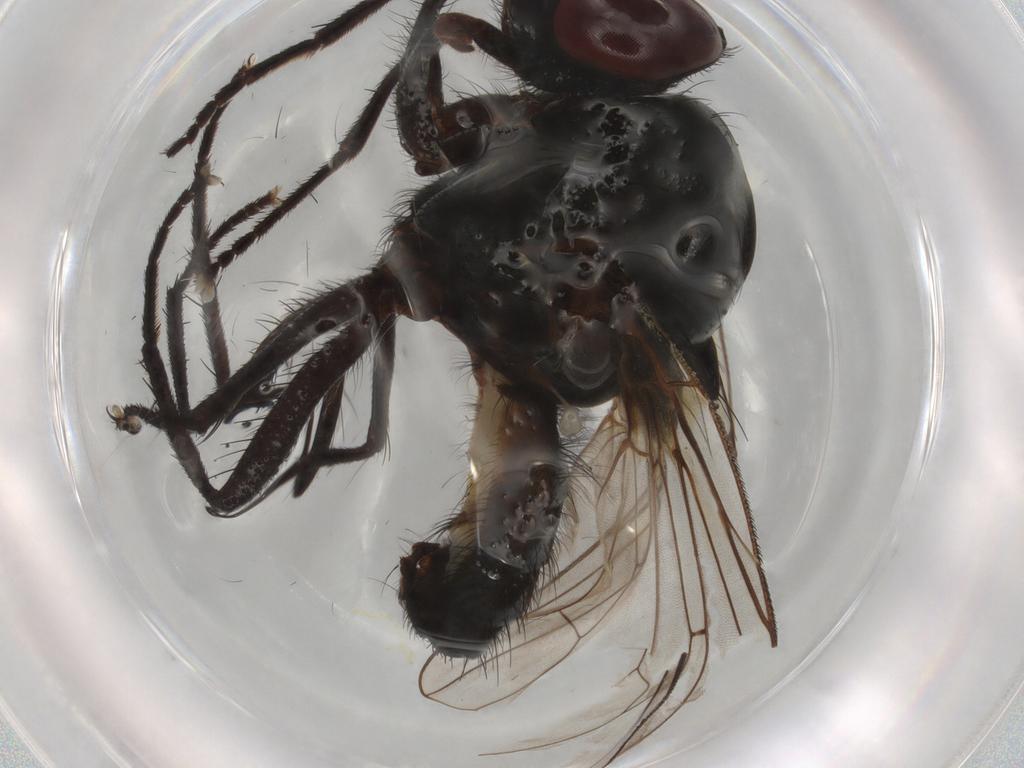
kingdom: Animalia
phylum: Arthropoda
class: Insecta
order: Diptera
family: Anthomyiidae
